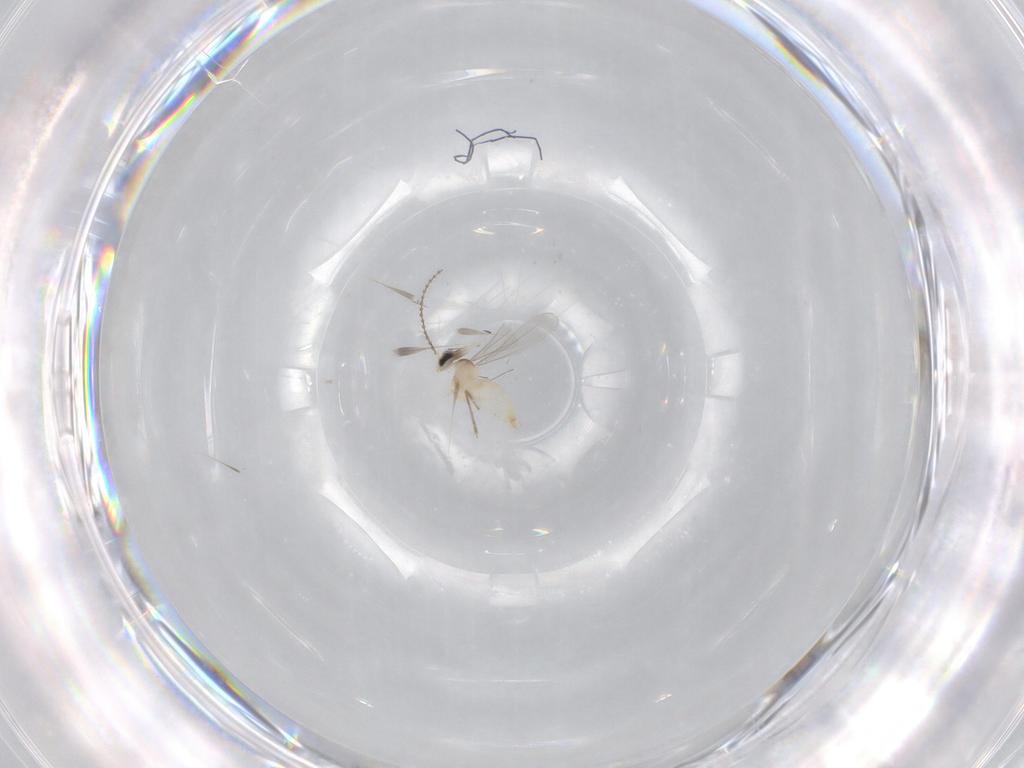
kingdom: Animalia
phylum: Arthropoda
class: Insecta
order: Diptera
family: Cecidomyiidae
